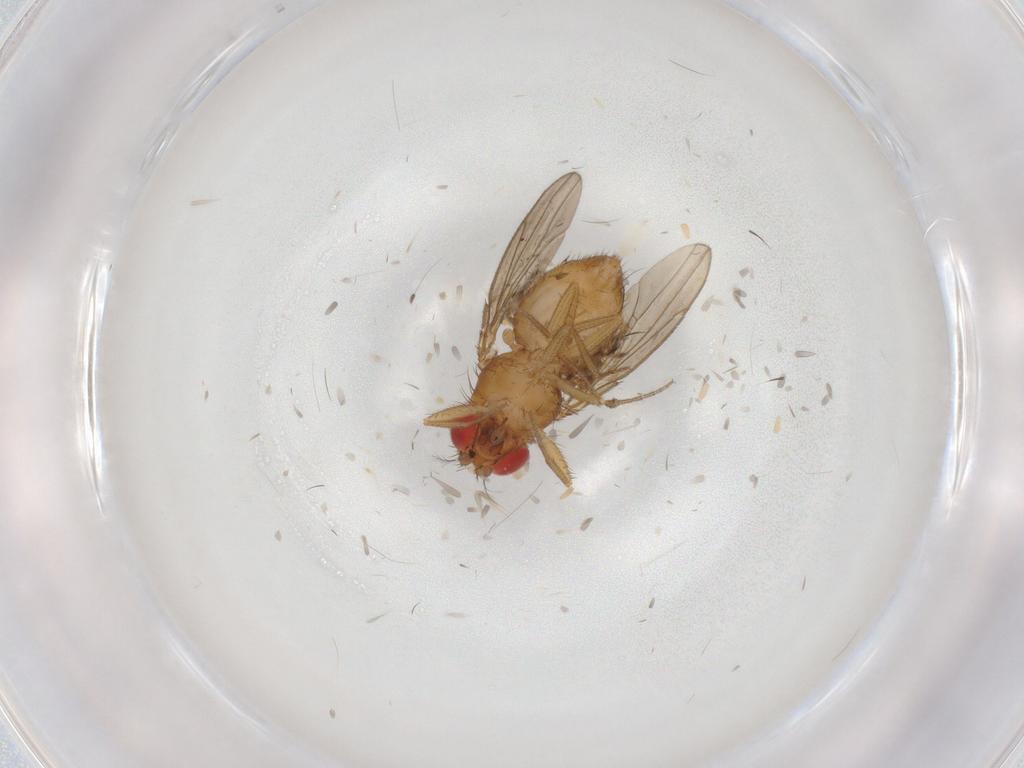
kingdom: Animalia
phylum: Arthropoda
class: Insecta
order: Diptera
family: Drosophilidae
